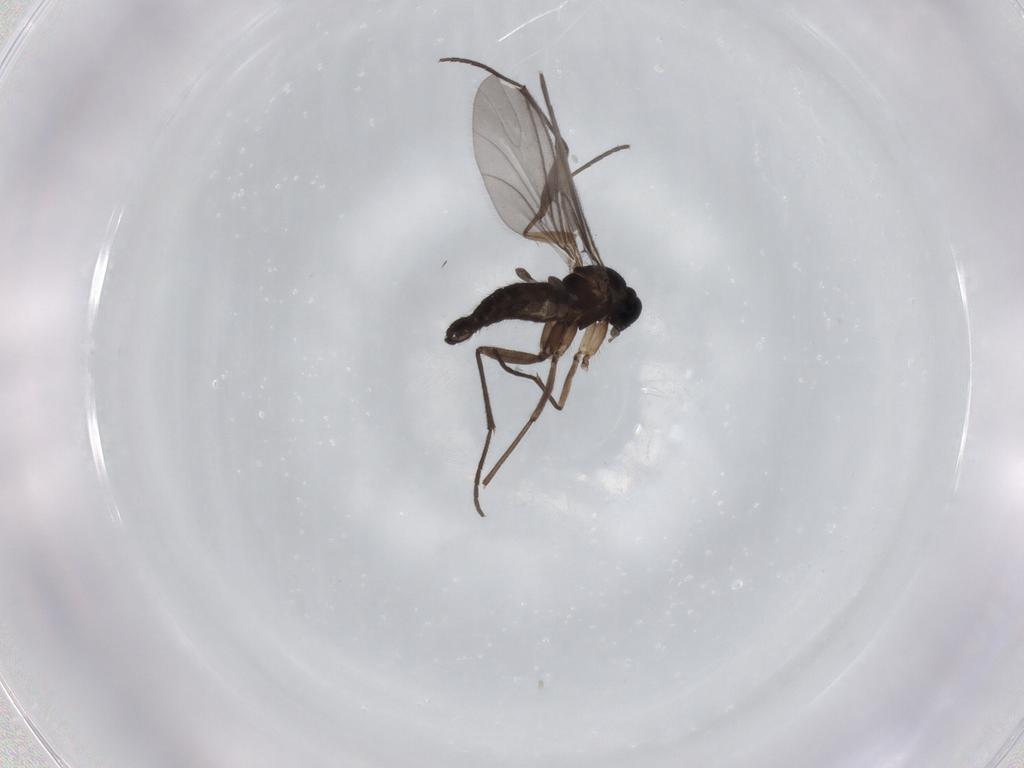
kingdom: Animalia
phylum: Arthropoda
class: Insecta
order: Diptera
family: Sciaridae
